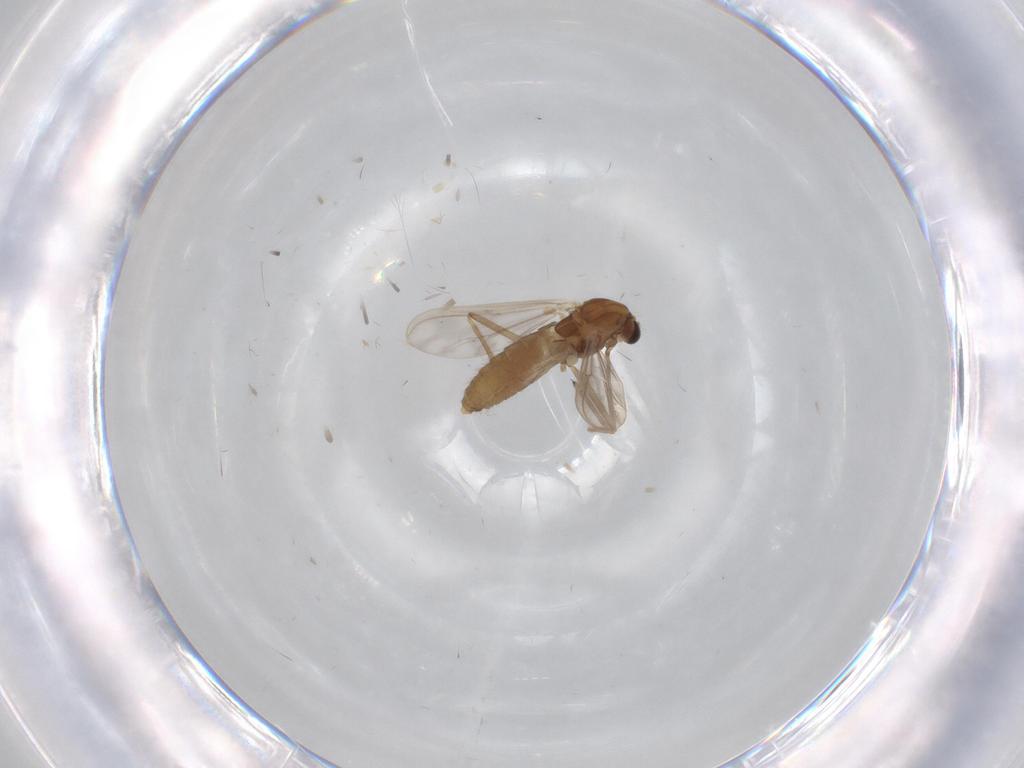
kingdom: Animalia
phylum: Arthropoda
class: Insecta
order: Diptera
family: Chironomidae
